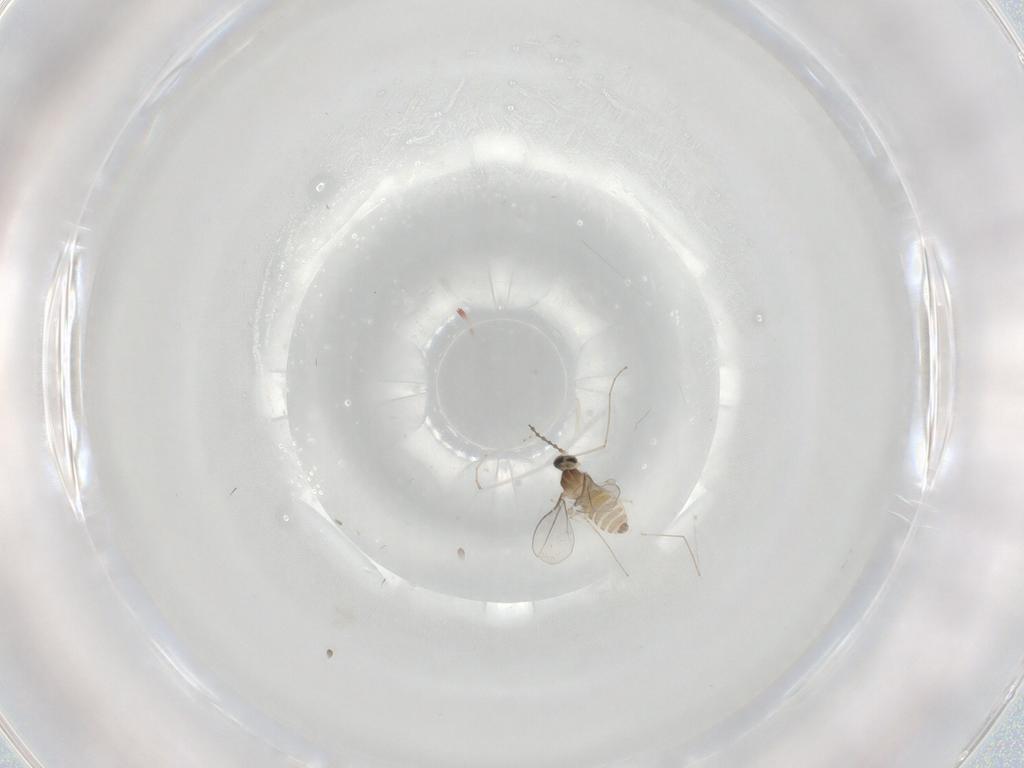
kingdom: Animalia
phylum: Arthropoda
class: Insecta
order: Diptera
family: Cecidomyiidae
